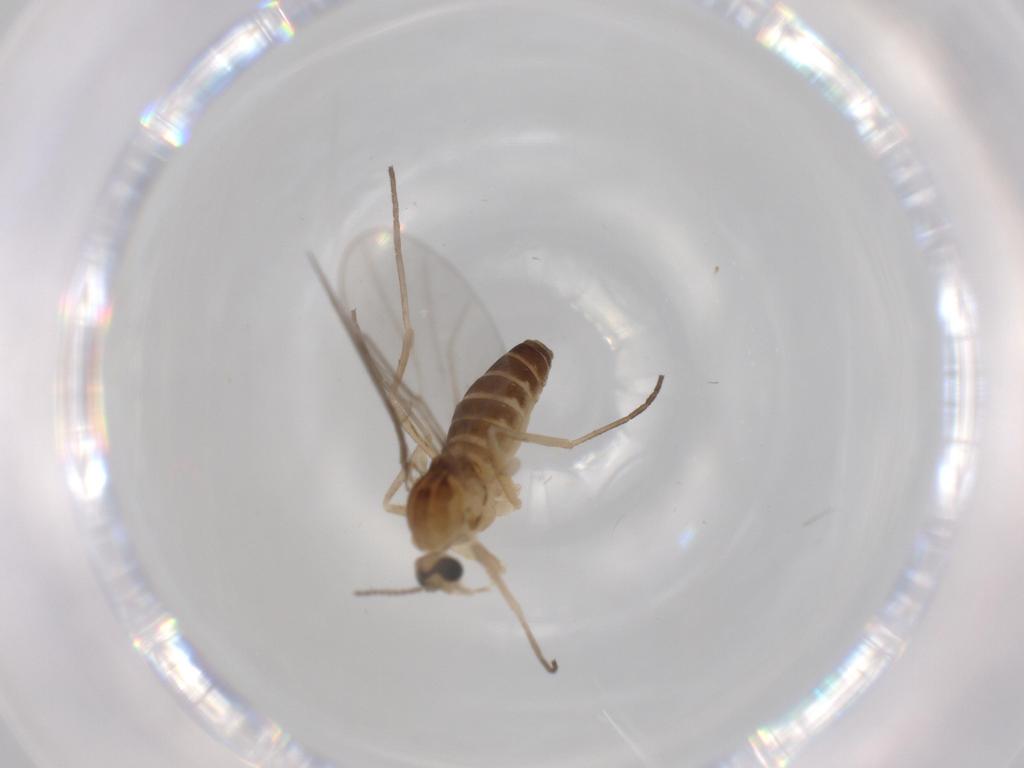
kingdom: Animalia
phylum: Arthropoda
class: Insecta
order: Diptera
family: Cecidomyiidae
